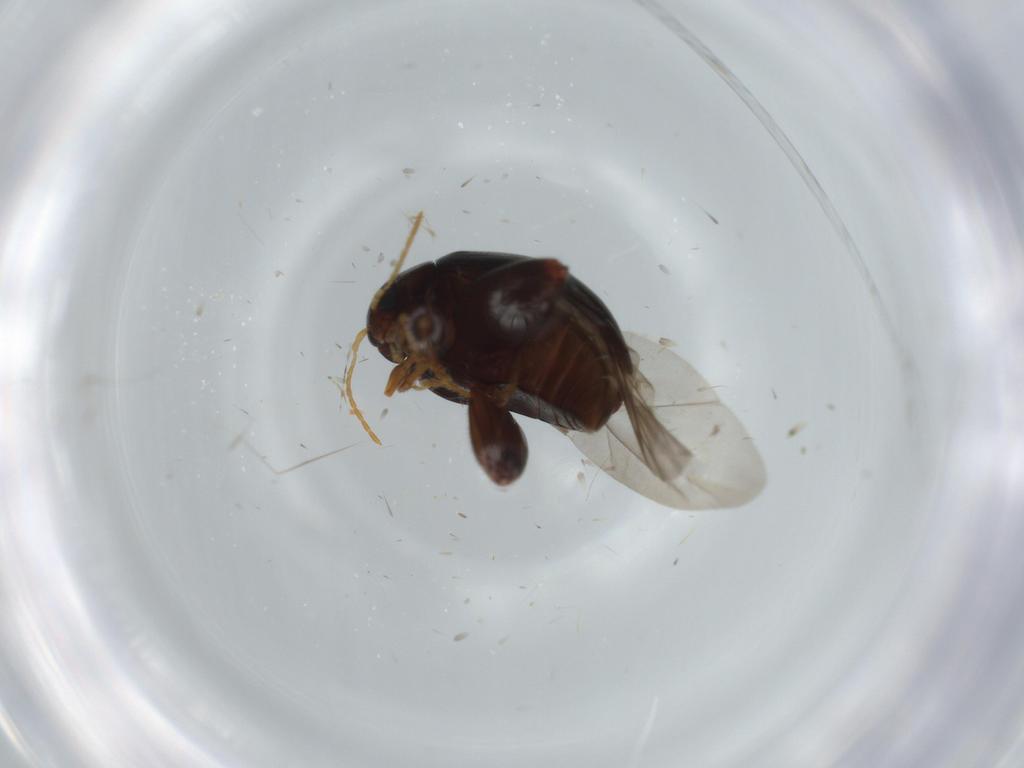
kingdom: Animalia
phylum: Arthropoda
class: Insecta
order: Coleoptera
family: Chrysomelidae
